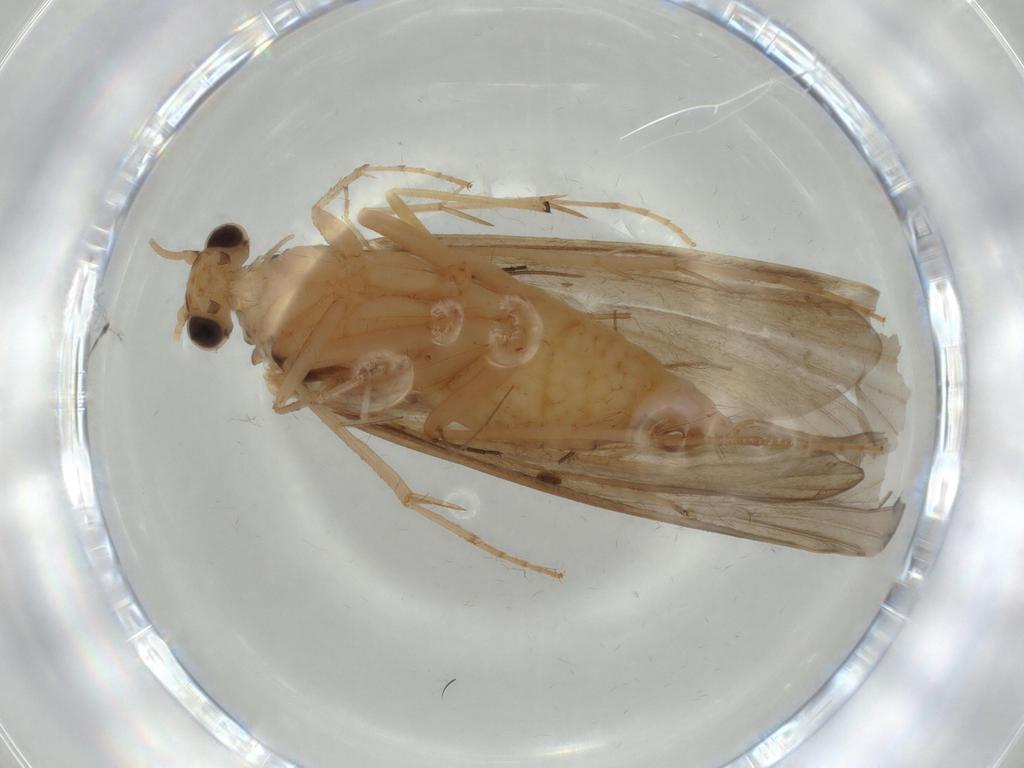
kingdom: Animalia
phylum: Arthropoda
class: Insecta
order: Trichoptera
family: Ecnomidae
